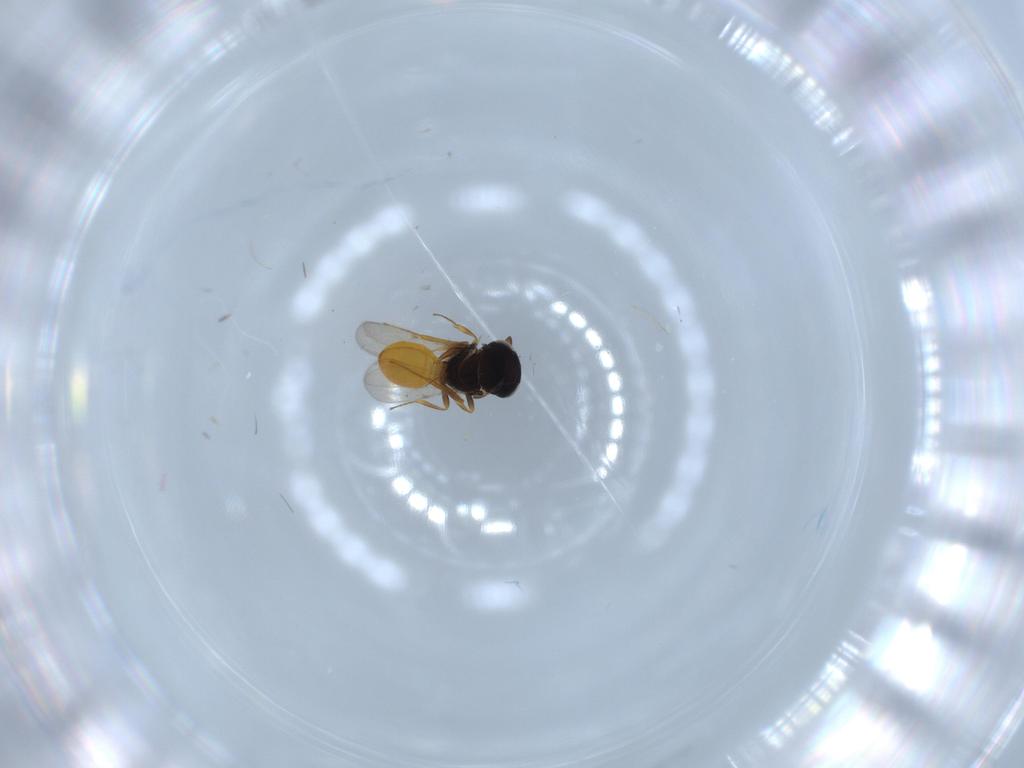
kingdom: Animalia
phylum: Arthropoda
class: Insecta
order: Hymenoptera
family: Scelionidae
